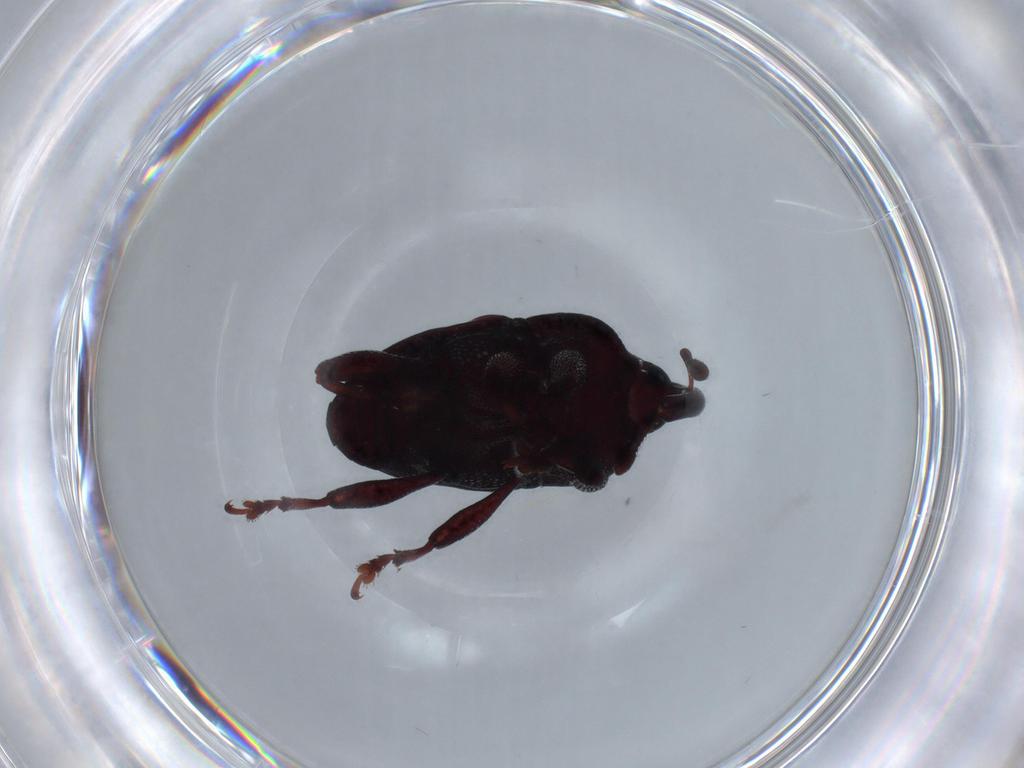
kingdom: Animalia
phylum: Arthropoda
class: Insecta
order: Coleoptera
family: Curculionidae
